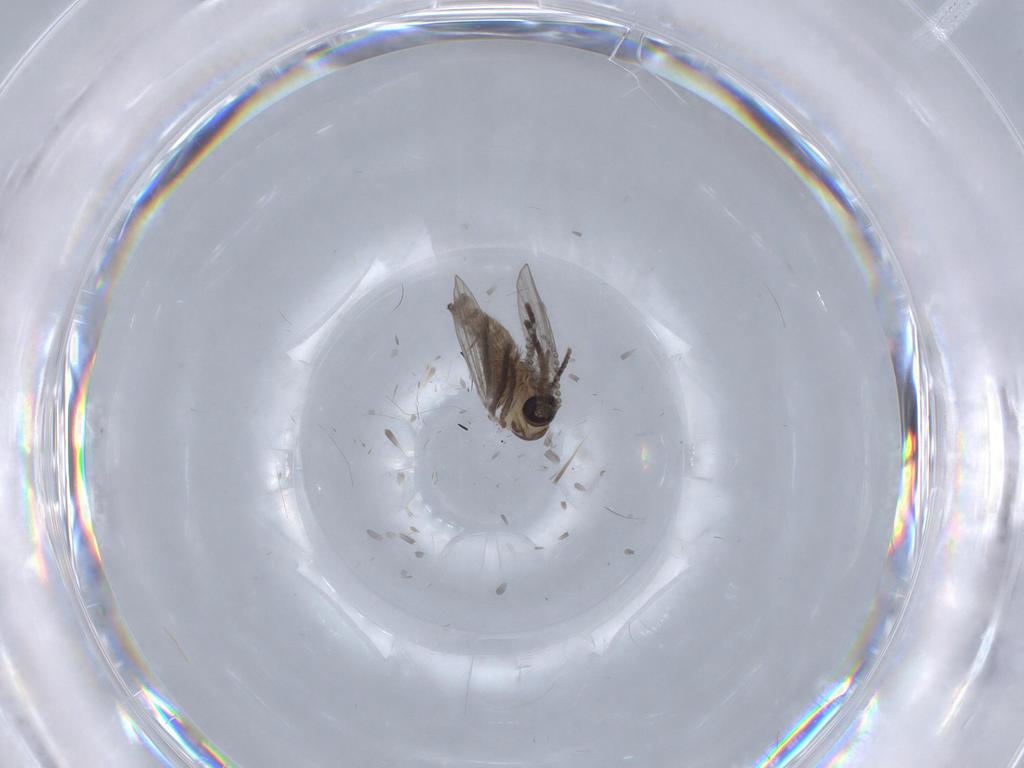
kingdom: Animalia
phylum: Arthropoda
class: Insecta
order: Diptera
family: Psychodidae
